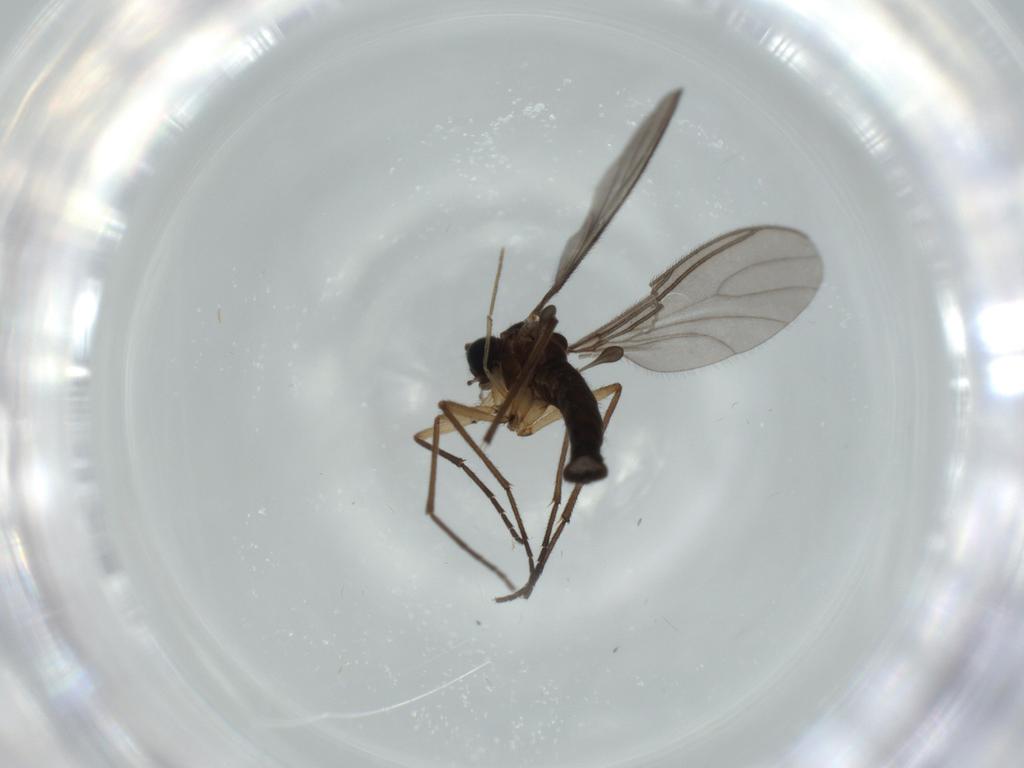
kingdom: Animalia
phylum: Arthropoda
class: Insecta
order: Diptera
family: Sciaridae
